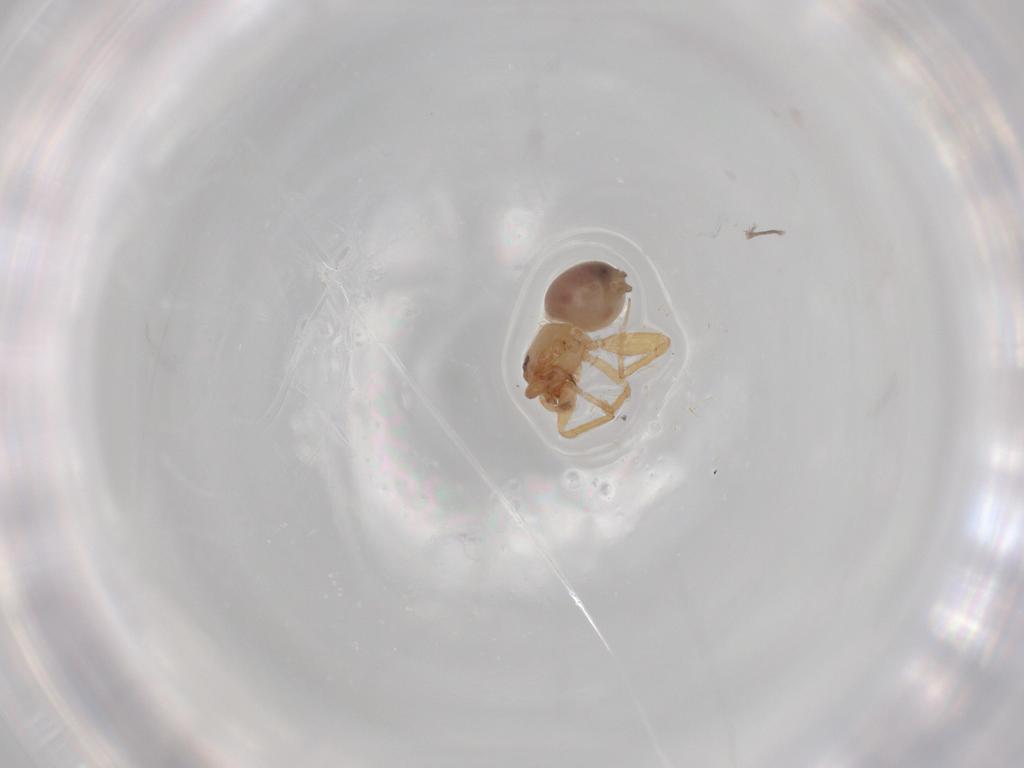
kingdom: Animalia
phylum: Arthropoda
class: Arachnida
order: Araneae
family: Oonopidae
